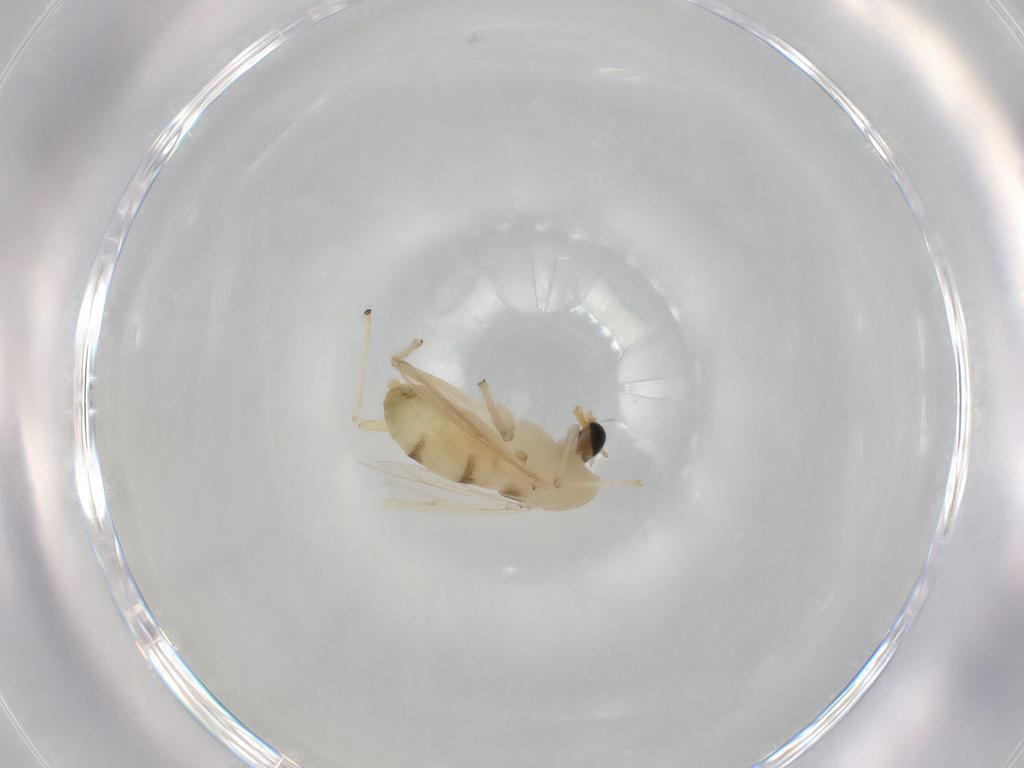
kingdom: Animalia
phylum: Arthropoda
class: Insecta
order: Diptera
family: Chironomidae
